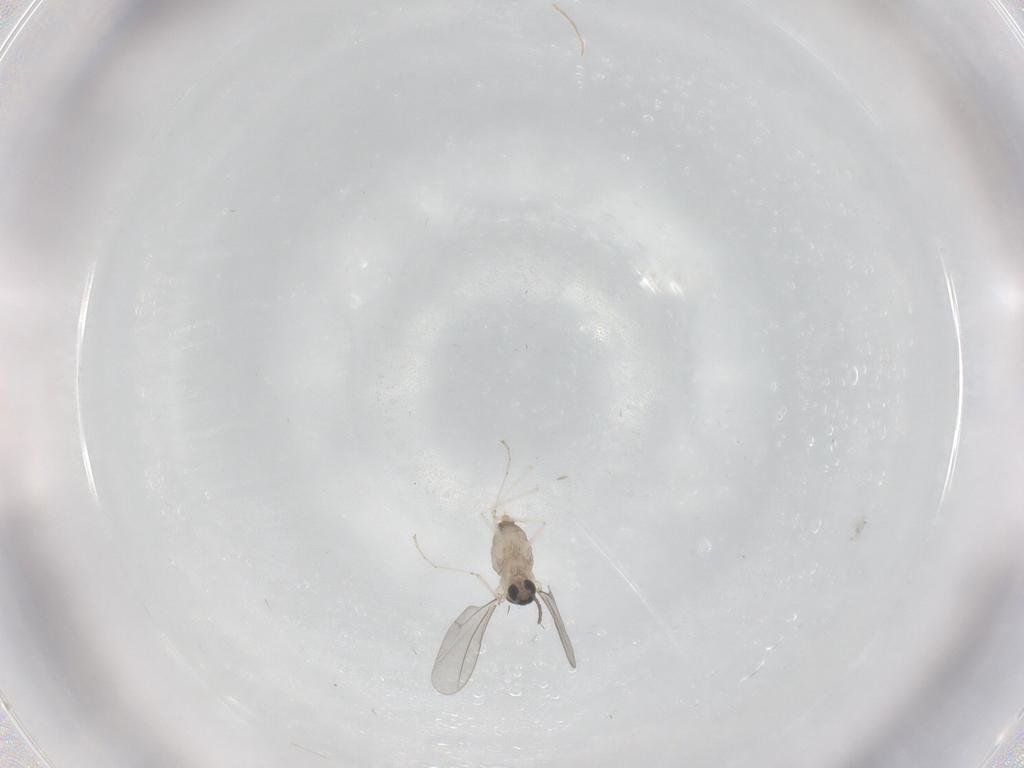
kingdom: Animalia
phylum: Arthropoda
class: Insecta
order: Diptera
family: Cecidomyiidae
